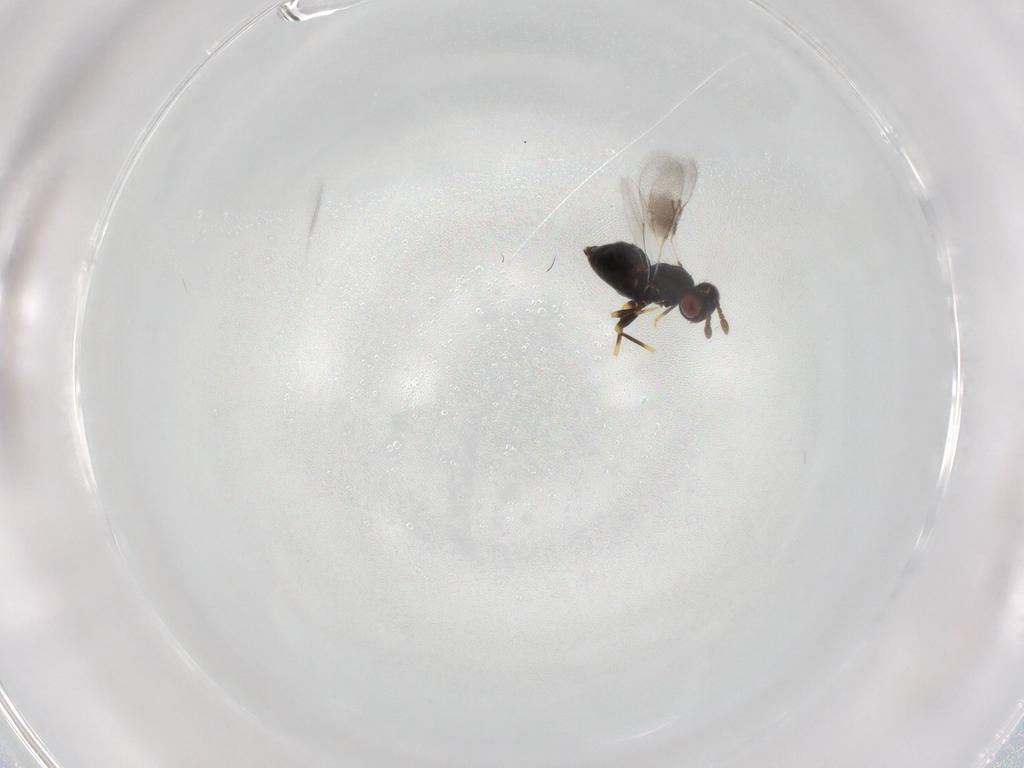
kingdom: Animalia
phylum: Arthropoda
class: Insecta
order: Hymenoptera
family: Eulophidae
